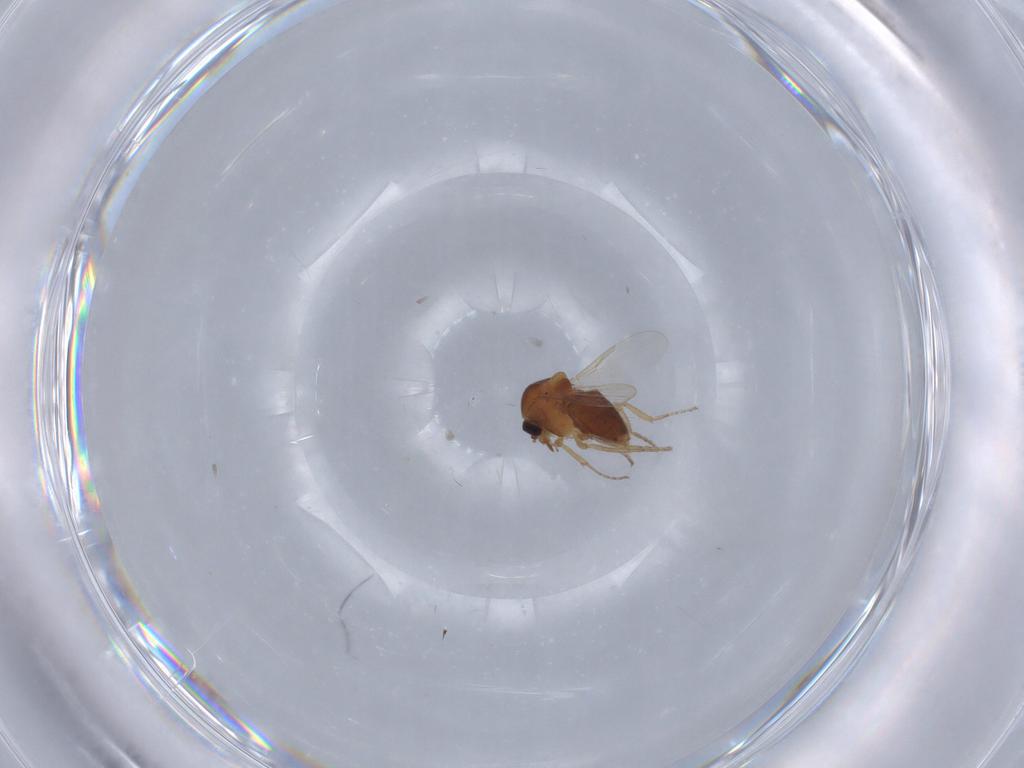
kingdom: Animalia
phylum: Arthropoda
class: Insecta
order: Diptera
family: Ceratopogonidae
